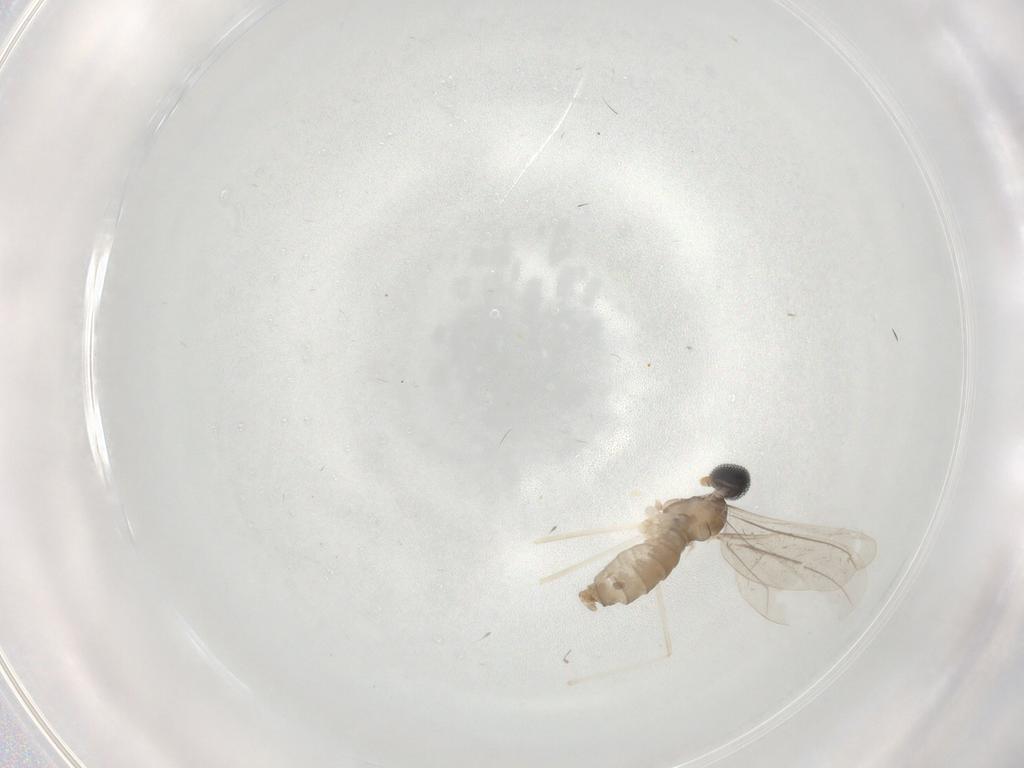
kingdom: Animalia
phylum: Arthropoda
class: Insecta
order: Diptera
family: Cecidomyiidae
